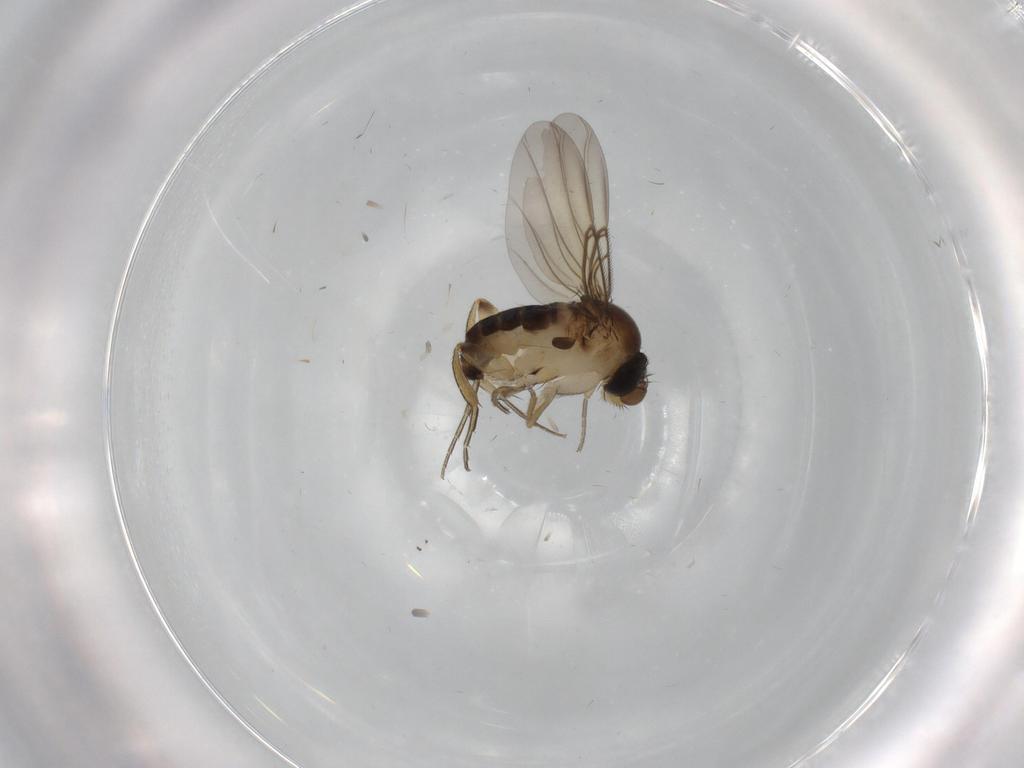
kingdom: Animalia
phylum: Arthropoda
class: Insecta
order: Diptera
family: Phoridae
